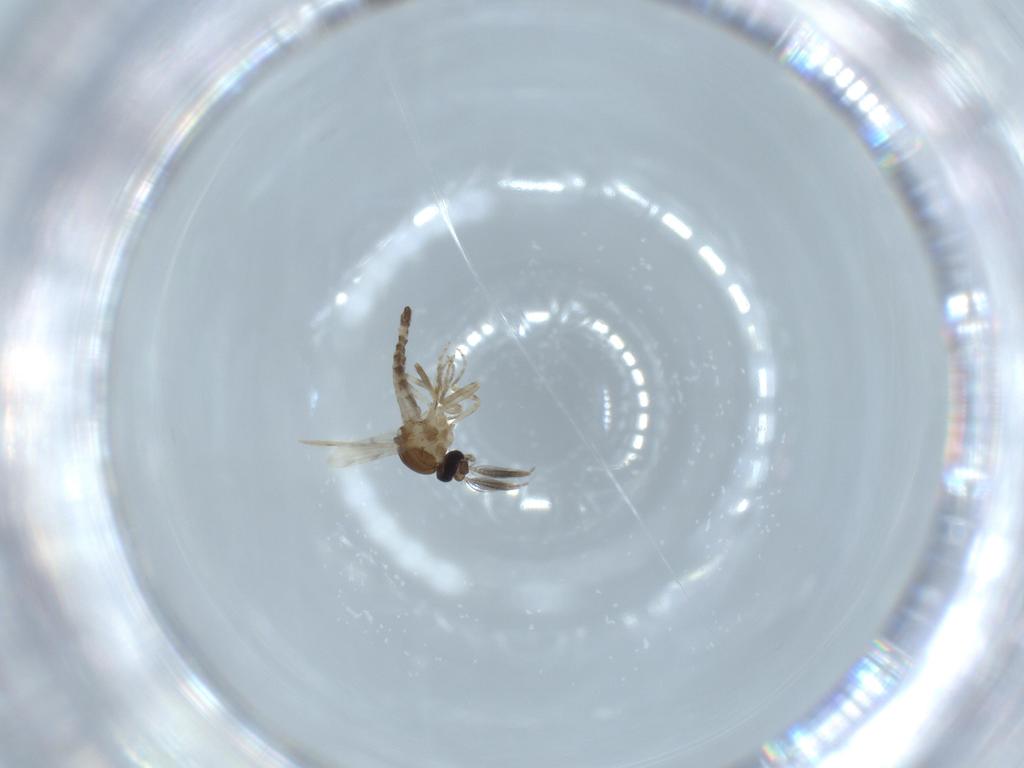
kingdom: Animalia
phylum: Arthropoda
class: Insecta
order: Diptera
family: Ceratopogonidae
